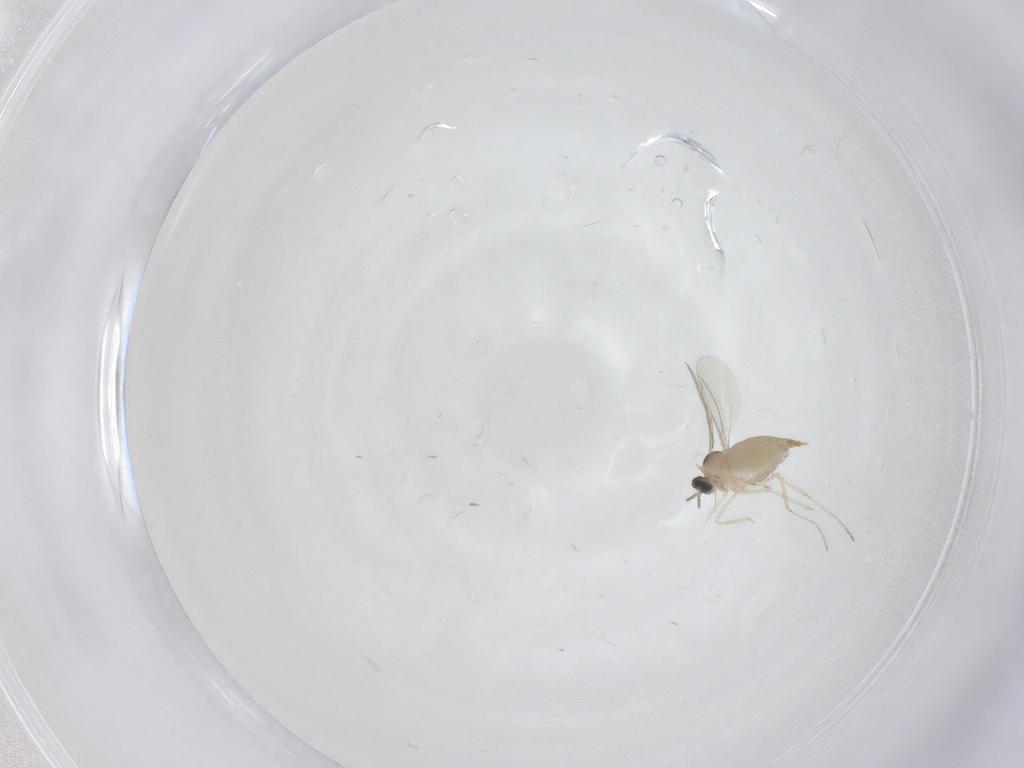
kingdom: Animalia
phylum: Arthropoda
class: Insecta
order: Diptera
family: Cecidomyiidae
